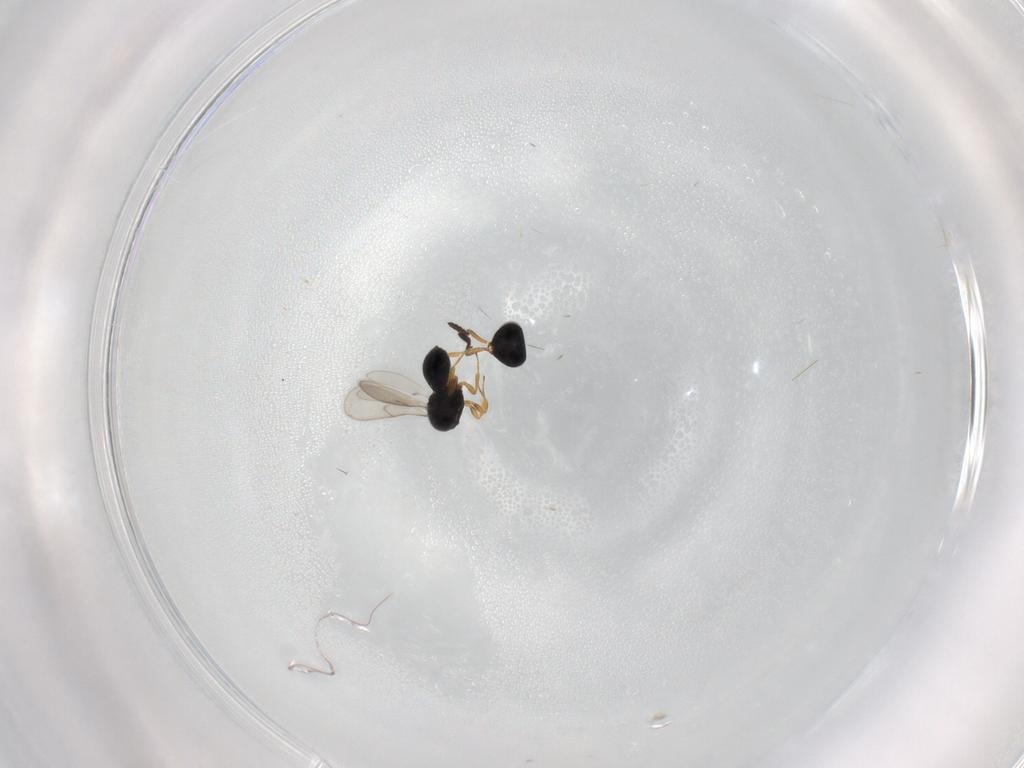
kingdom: Animalia
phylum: Arthropoda
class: Insecta
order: Hymenoptera
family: Scelionidae
